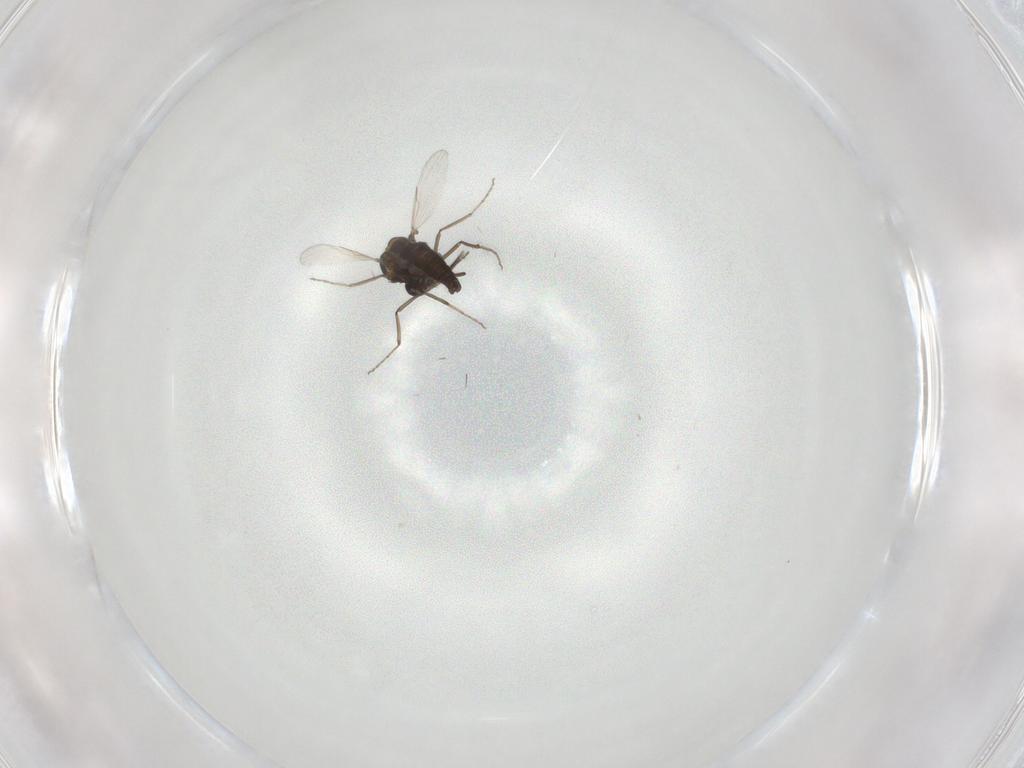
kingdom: Animalia
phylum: Arthropoda
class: Insecta
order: Diptera
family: Ceratopogonidae
